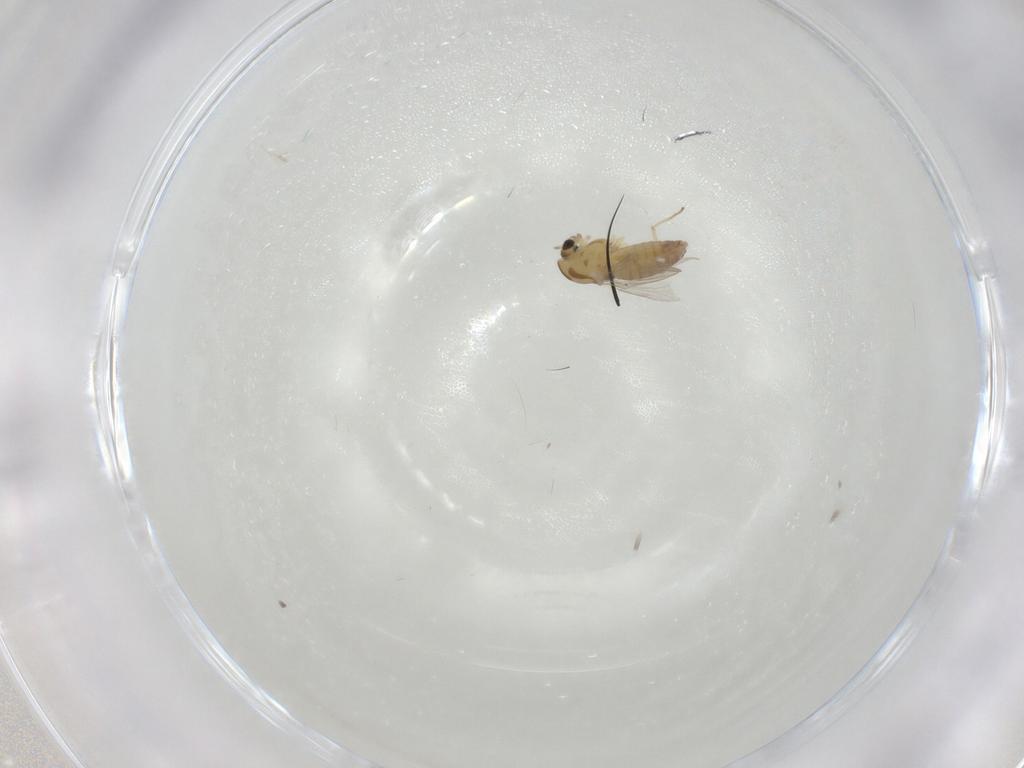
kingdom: Animalia
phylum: Arthropoda
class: Insecta
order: Diptera
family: Chironomidae
